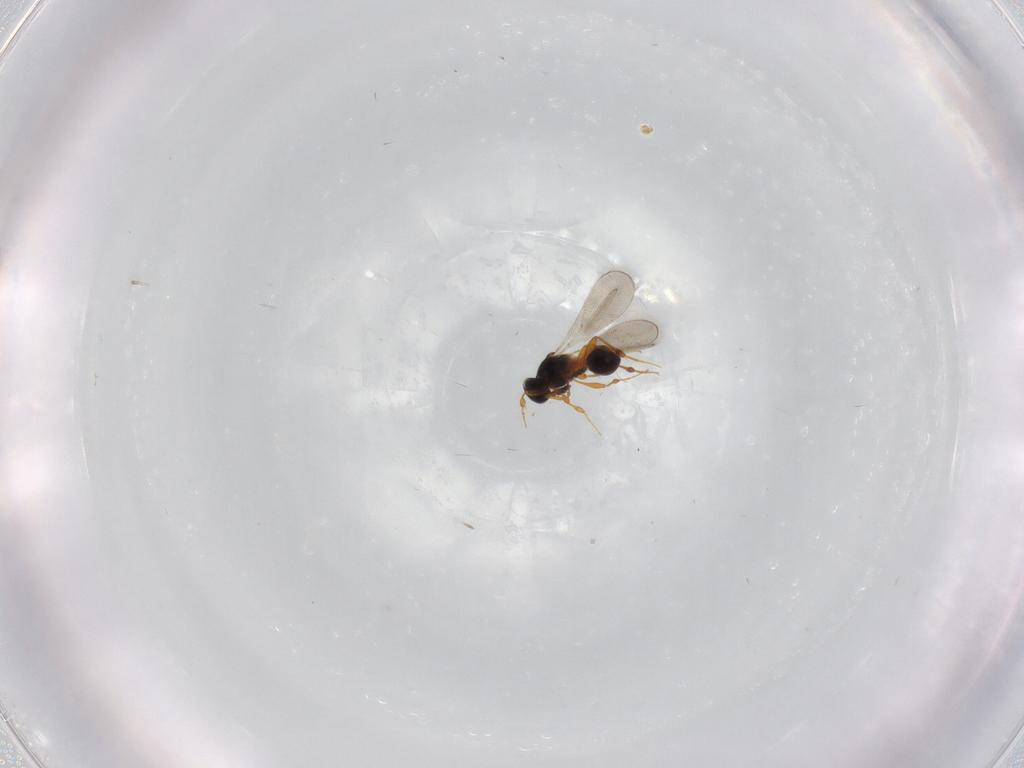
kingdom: Animalia
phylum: Arthropoda
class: Insecta
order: Hymenoptera
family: Platygastridae
